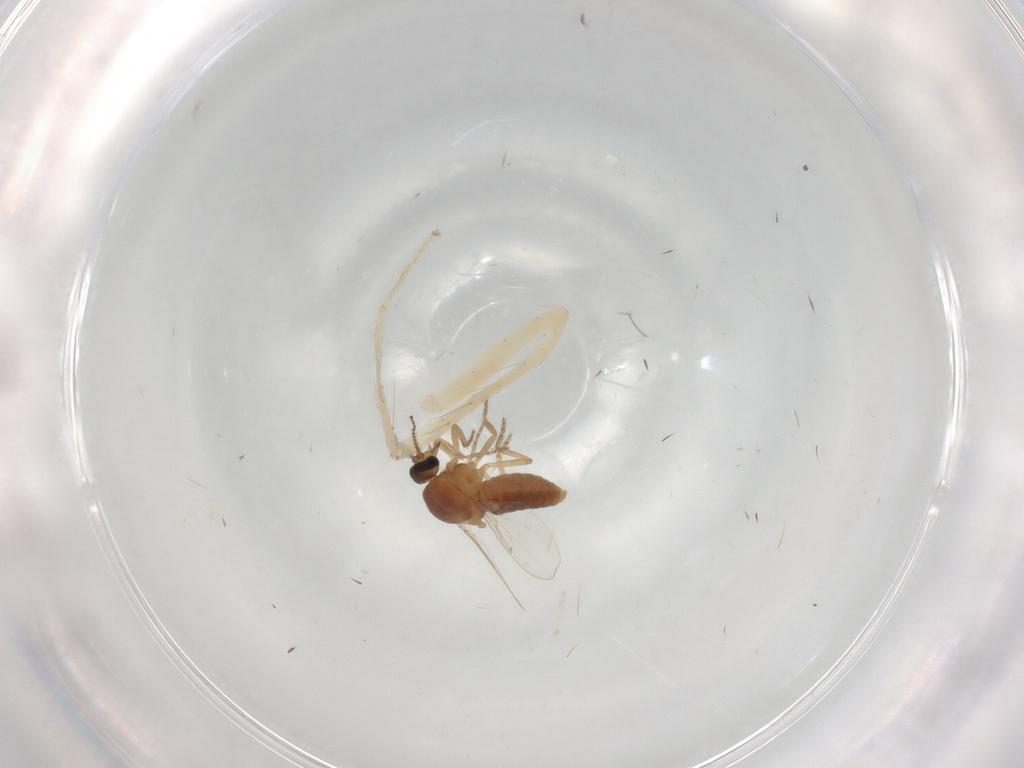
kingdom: Animalia
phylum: Arthropoda
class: Insecta
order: Diptera
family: Ceratopogonidae
